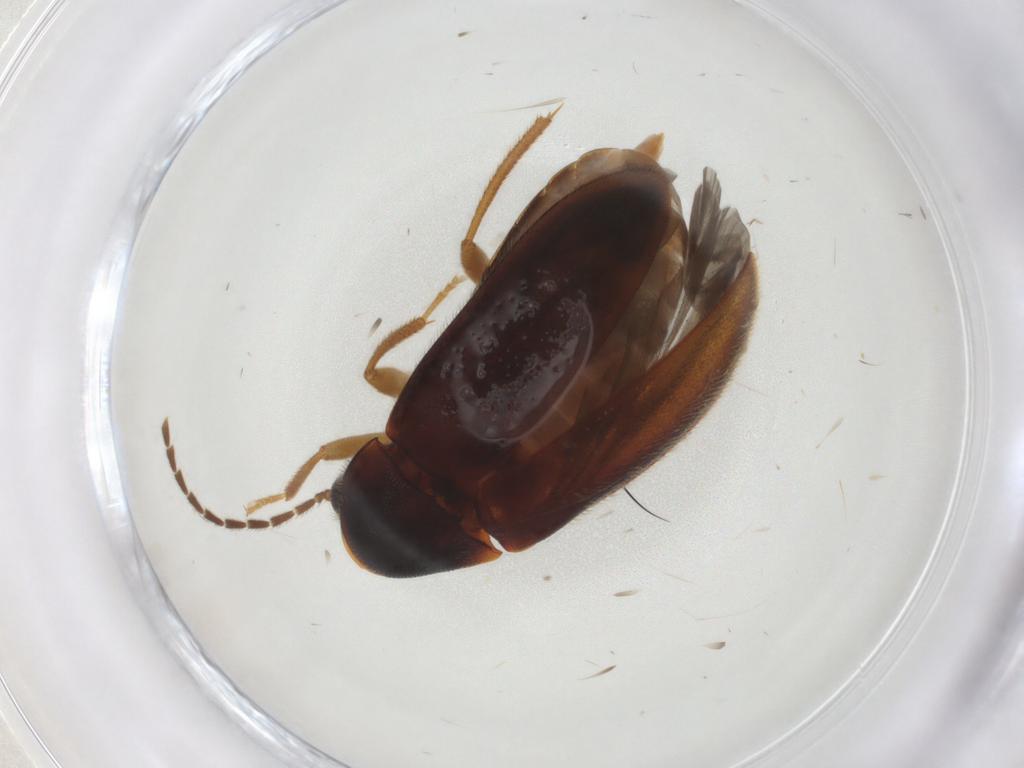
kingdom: Animalia
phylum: Arthropoda
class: Insecta
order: Coleoptera
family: Ptilodactylidae
